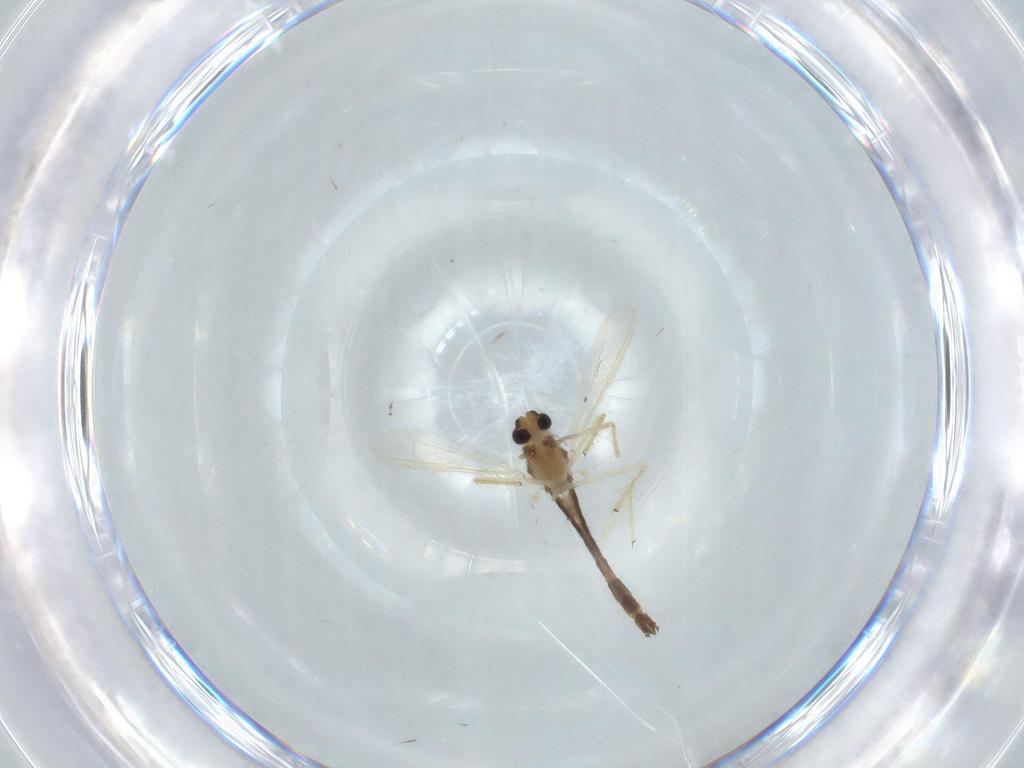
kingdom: Animalia
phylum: Arthropoda
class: Insecta
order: Diptera
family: Chironomidae
